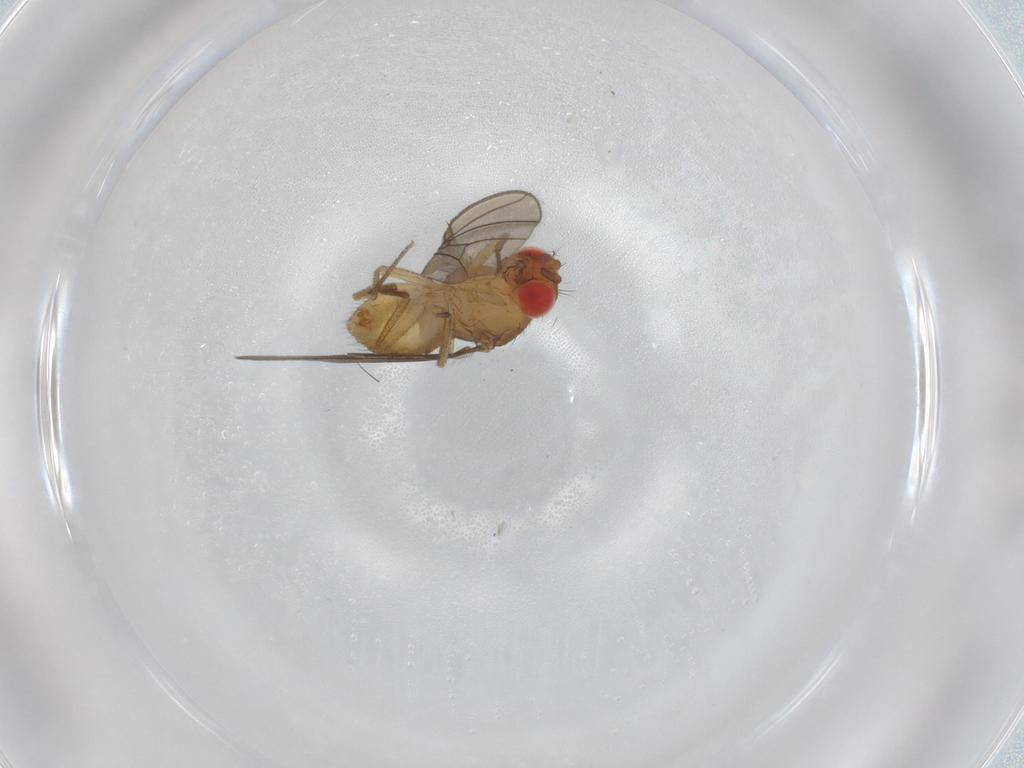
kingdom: Animalia
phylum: Arthropoda
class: Insecta
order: Diptera
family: Drosophilidae
